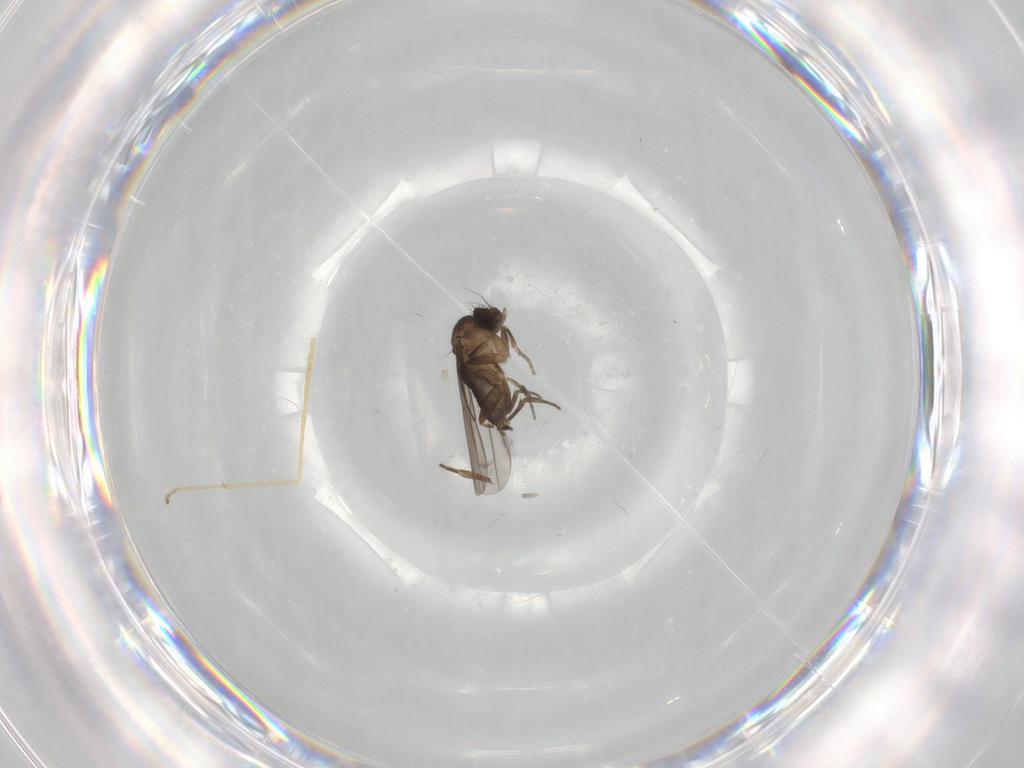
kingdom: Animalia
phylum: Arthropoda
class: Insecta
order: Diptera
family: Limoniidae
